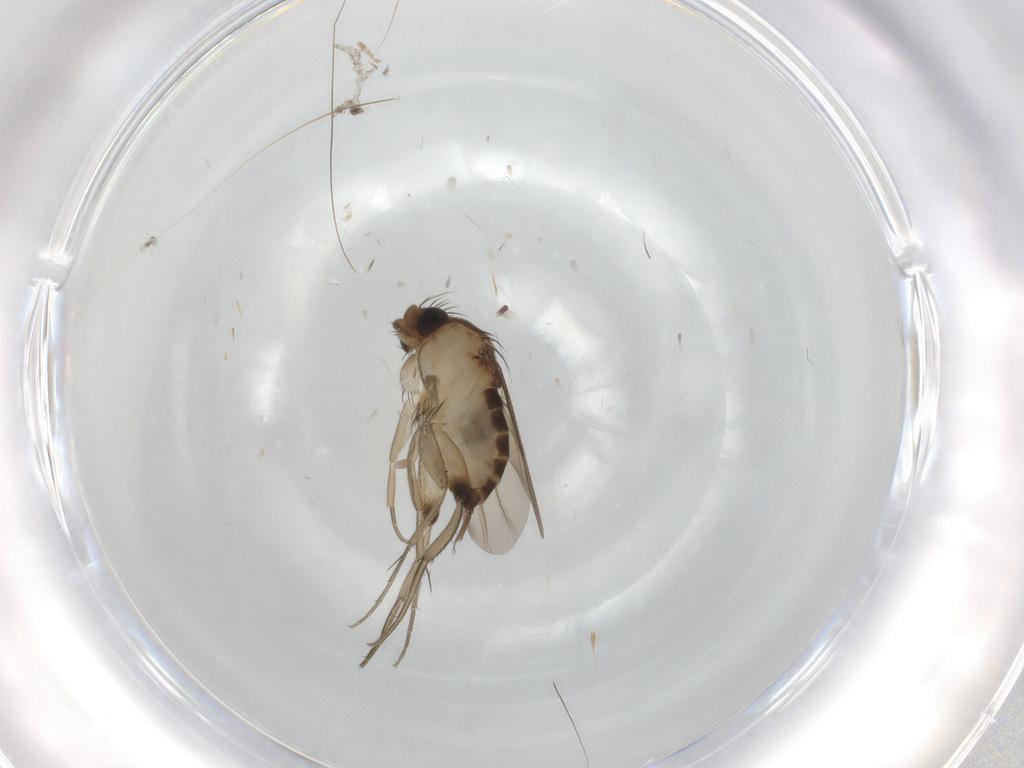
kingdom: Animalia
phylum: Arthropoda
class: Insecta
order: Diptera
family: Phoridae
